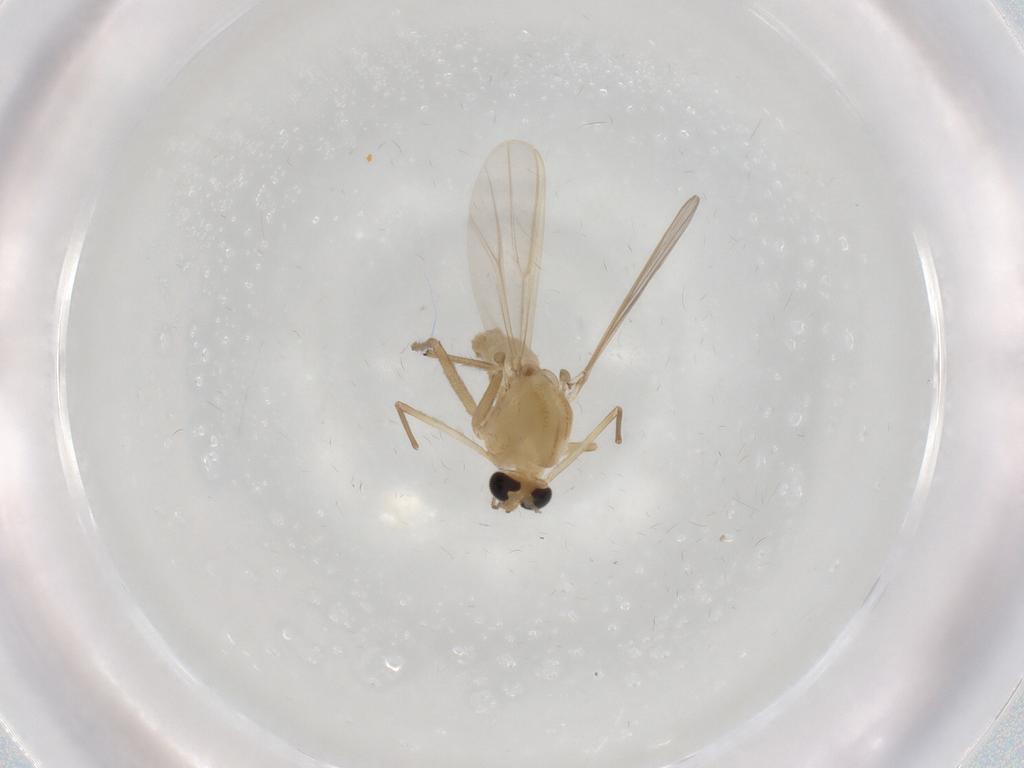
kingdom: Animalia
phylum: Arthropoda
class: Insecta
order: Diptera
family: Chironomidae
